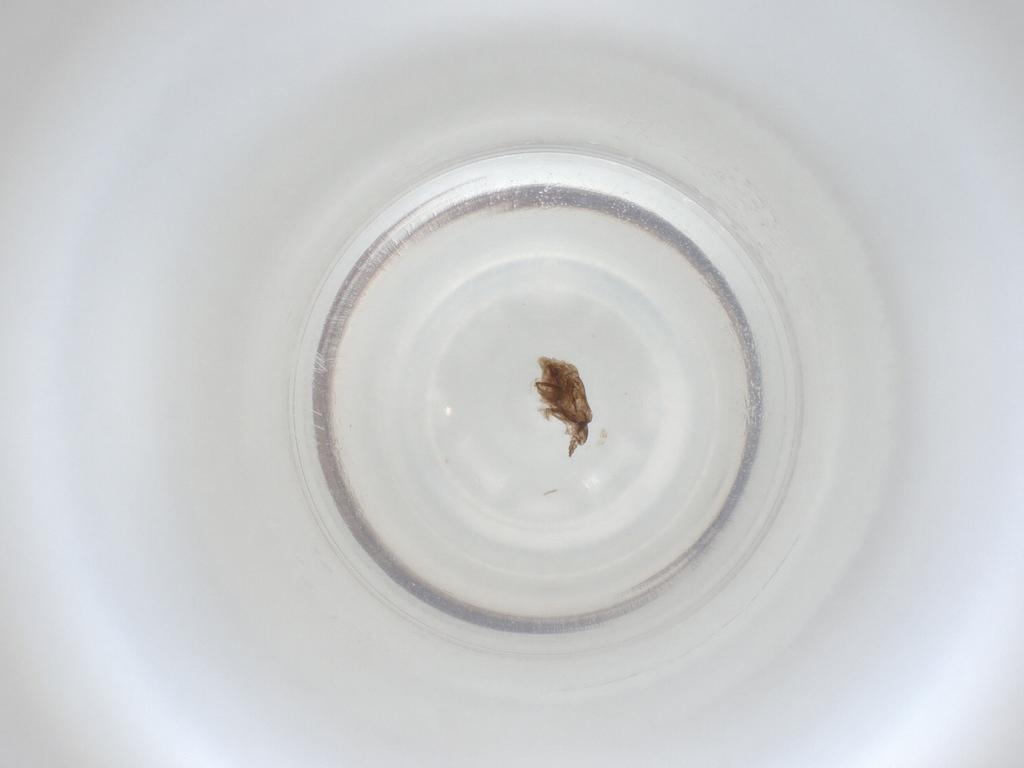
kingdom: Animalia
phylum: Arthropoda
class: Insecta
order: Diptera
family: Cecidomyiidae
